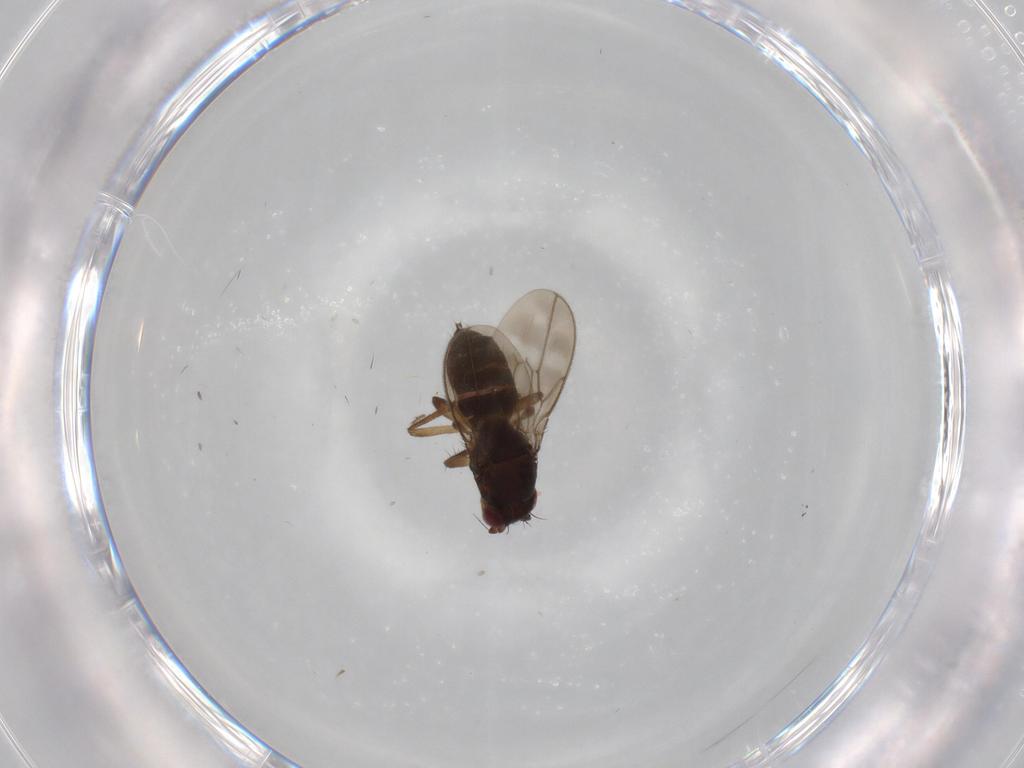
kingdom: Animalia
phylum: Arthropoda
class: Insecta
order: Diptera
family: Sphaeroceridae
